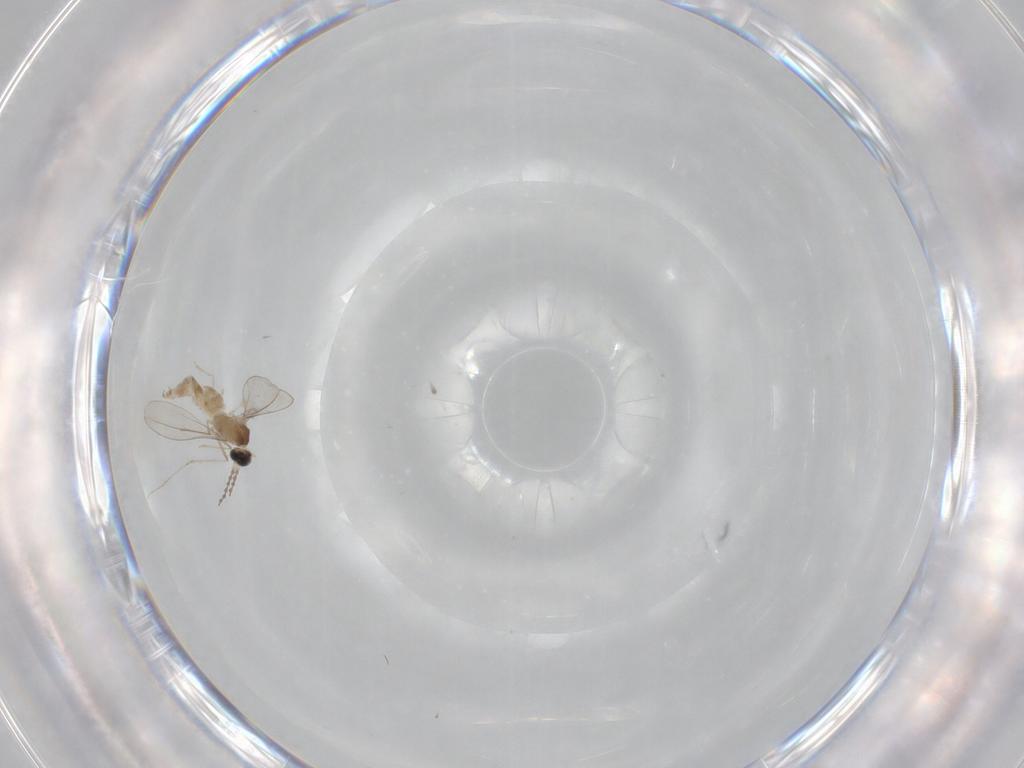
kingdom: Animalia
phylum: Arthropoda
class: Insecta
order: Diptera
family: Cecidomyiidae
